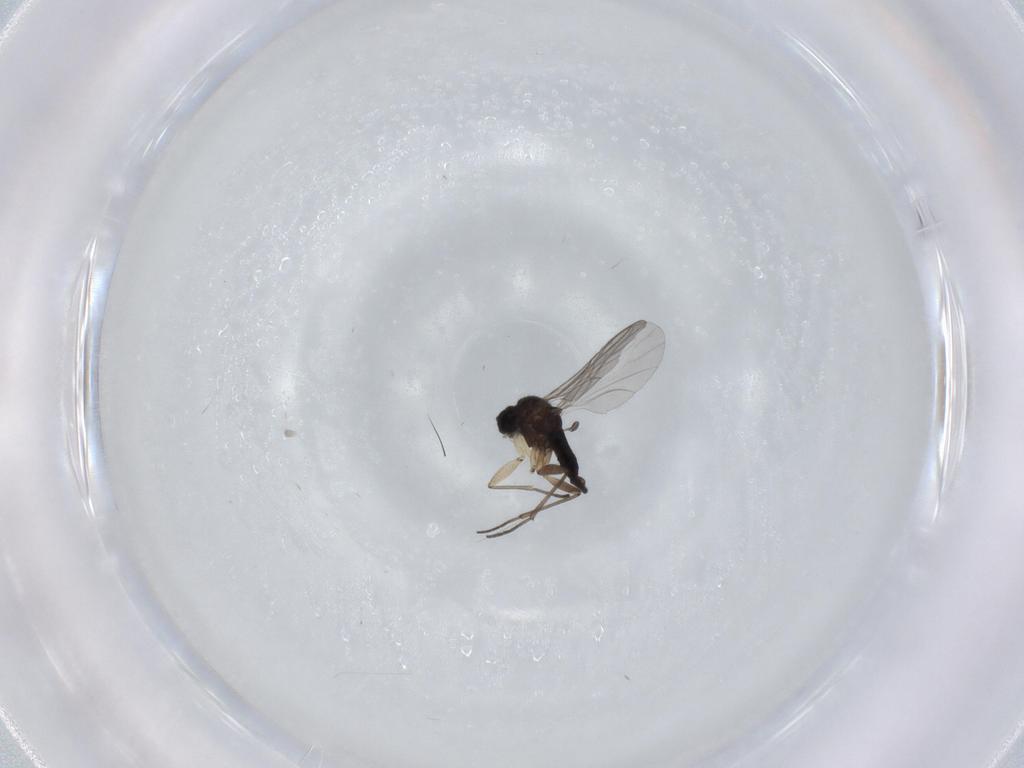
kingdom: Animalia
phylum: Arthropoda
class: Insecta
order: Diptera
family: Sciaridae
